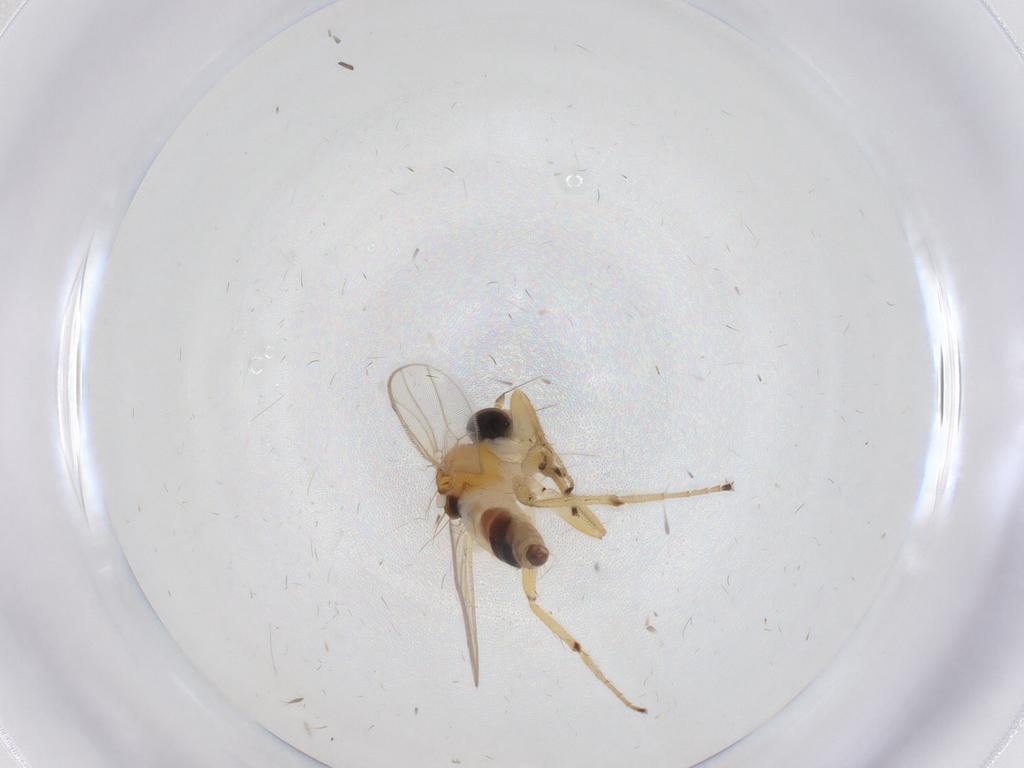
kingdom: Animalia
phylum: Arthropoda
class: Insecta
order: Diptera
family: Hybotidae
